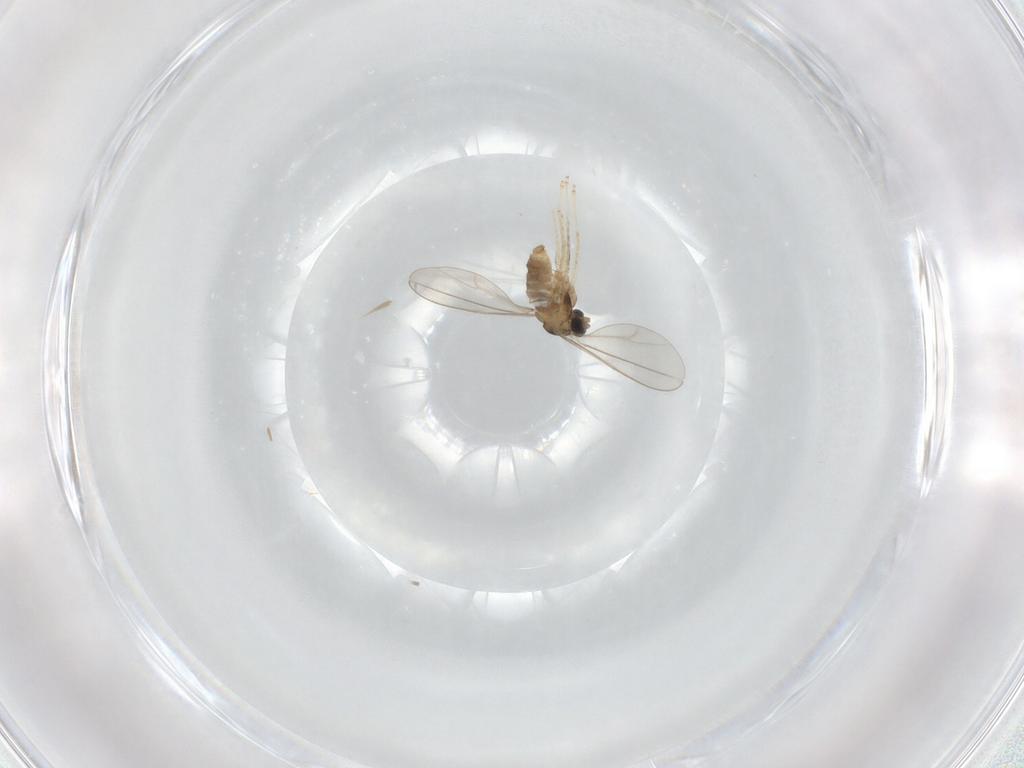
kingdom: Animalia
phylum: Arthropoda
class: Insecta
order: Diptera
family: Cecidomyiidae
